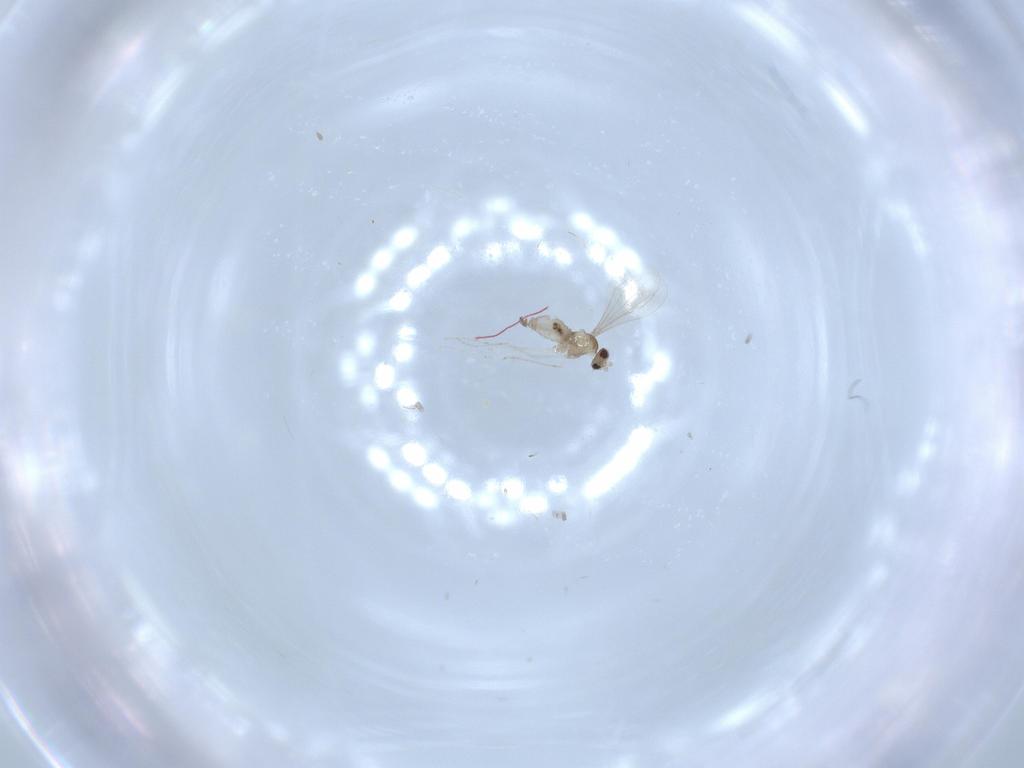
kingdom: Animalia
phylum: Arthropoda
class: Insecta
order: Diptera
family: Cecidomyiidae
